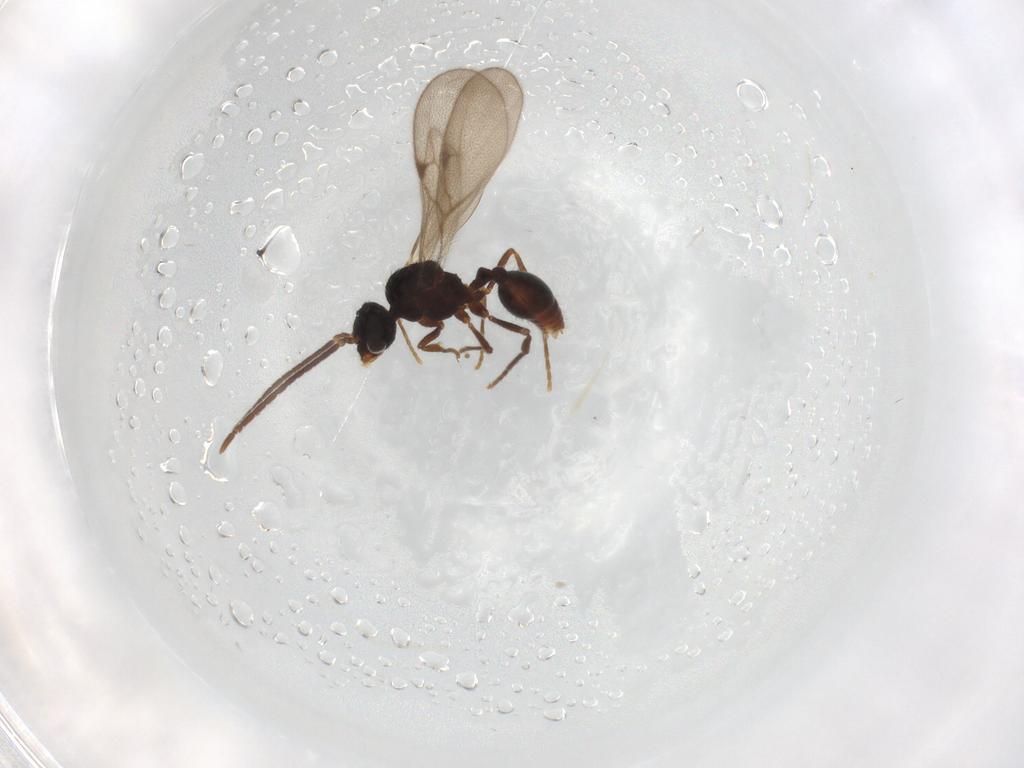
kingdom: Animalia
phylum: Arthropoda
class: Insecta
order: Hymenoptera
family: Formicidae
